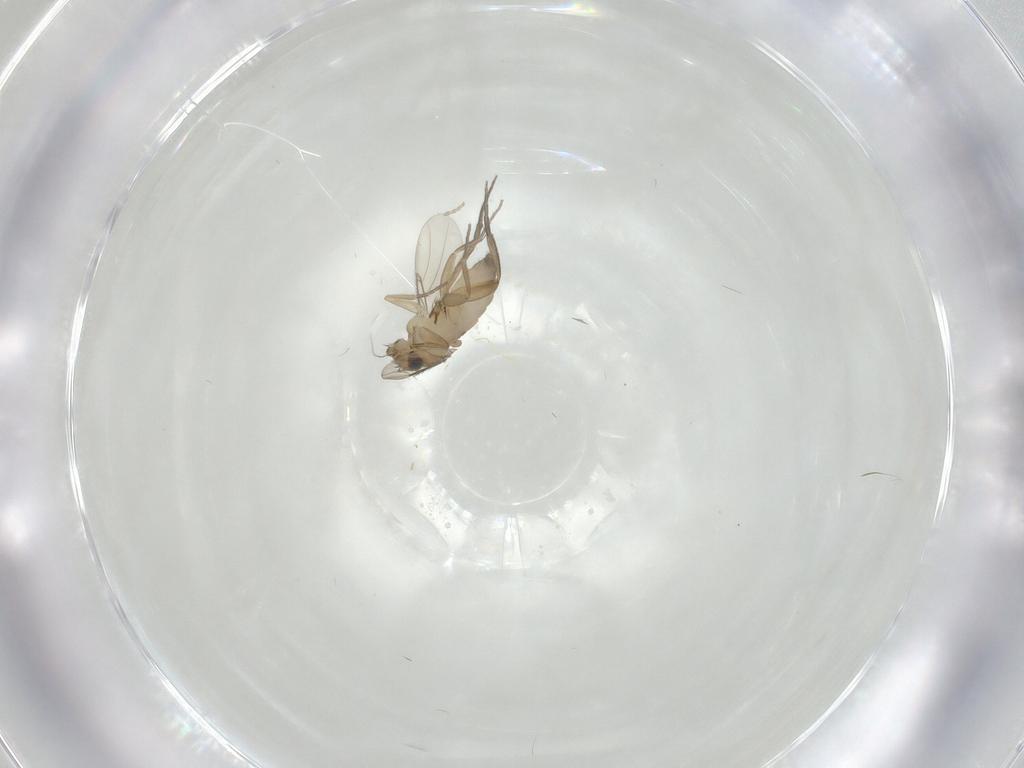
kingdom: Animalia
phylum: Arthropoda
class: Insecta
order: Diptera
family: Phoridae
